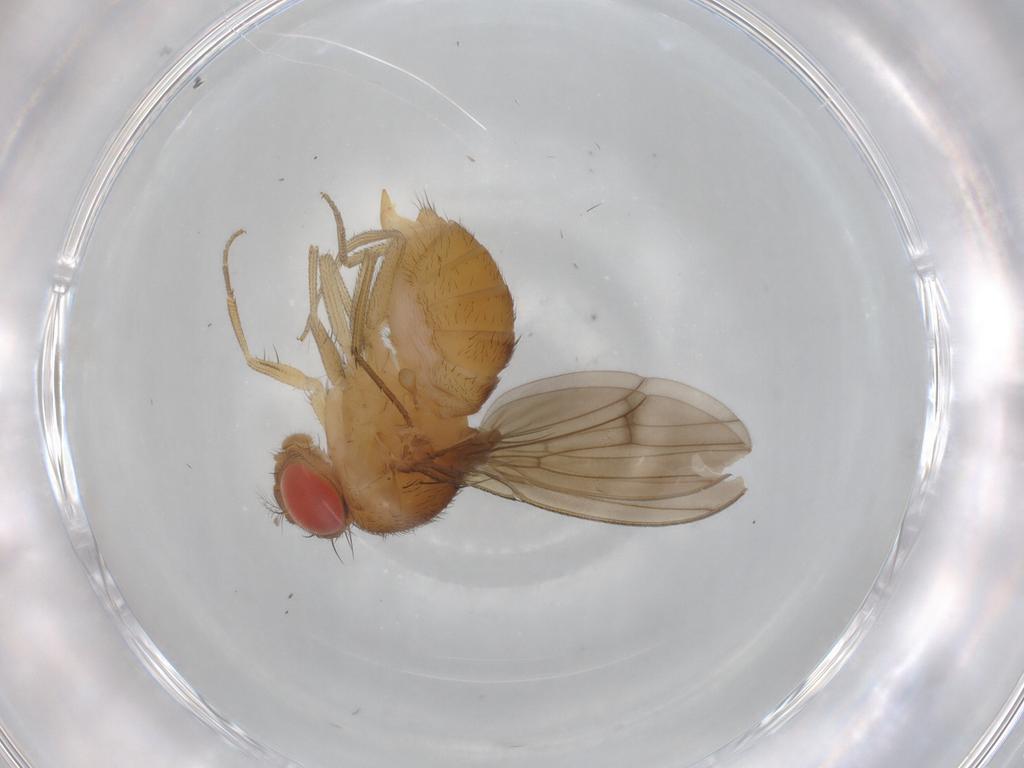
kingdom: Animalia
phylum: Arthropoda
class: Insecta
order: Diptera
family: Drosophilidae
